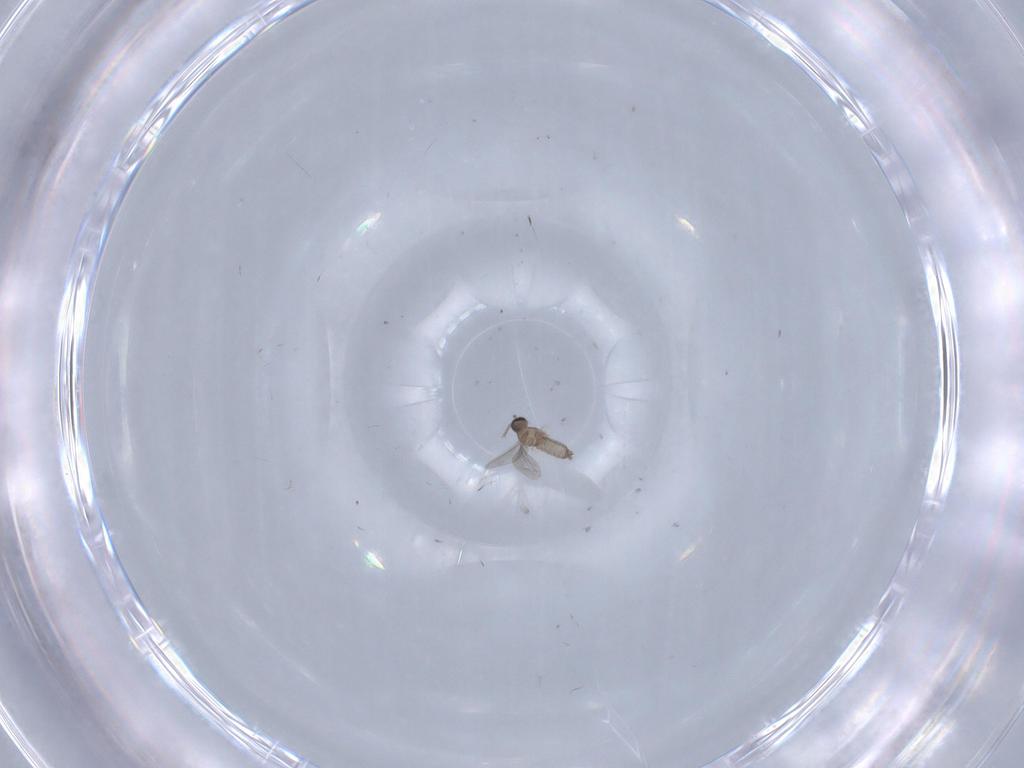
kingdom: Animalia
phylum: Arthropoda
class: Insecta
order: Diptera
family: Cecidomyiidae
